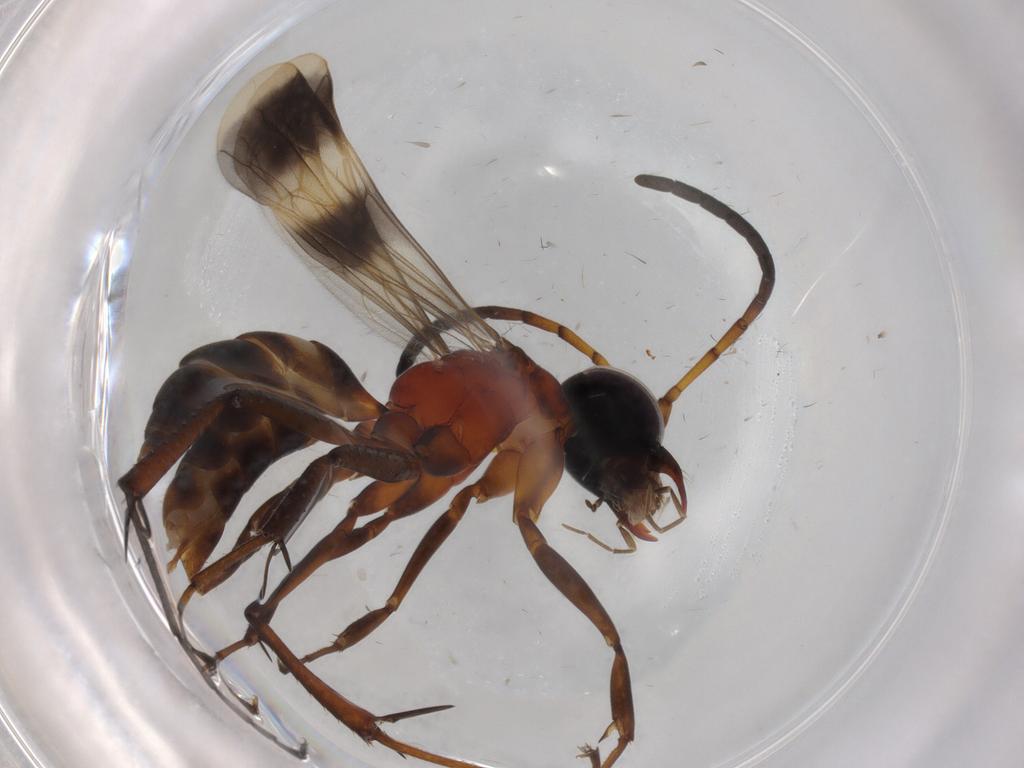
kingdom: Animalia
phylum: Arthropoda
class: Insecta
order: Hymenoptera
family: Pompilidae
